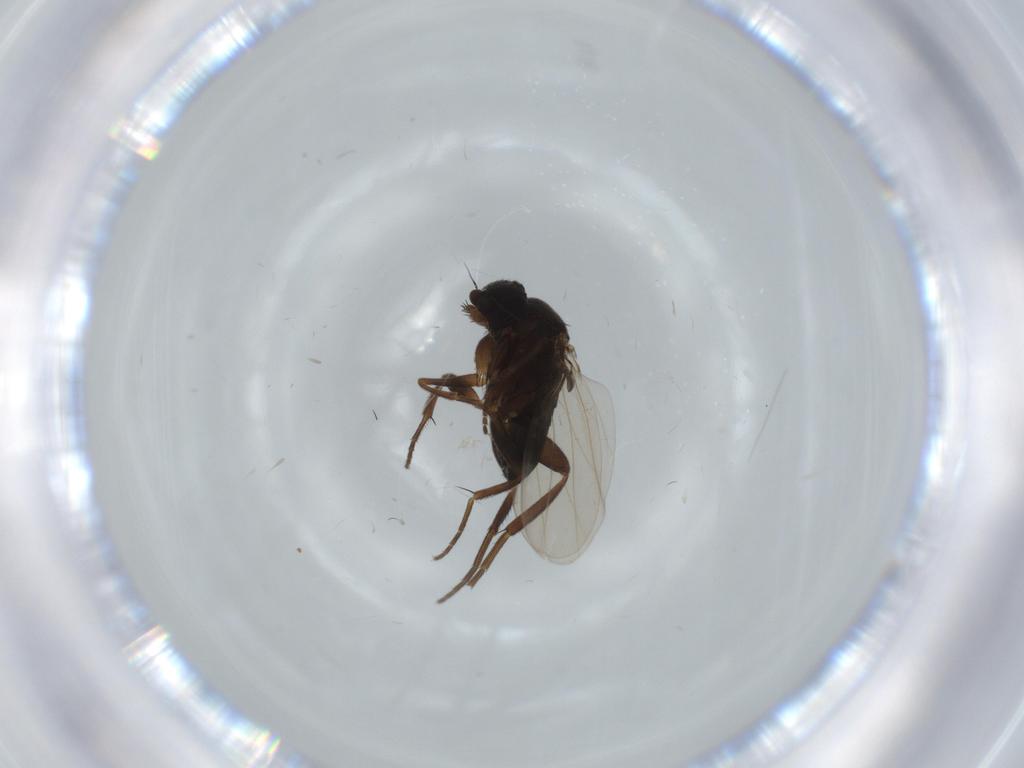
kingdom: Animalia
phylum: Arthropoda
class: Insecta
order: Diptera
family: Phoridae
